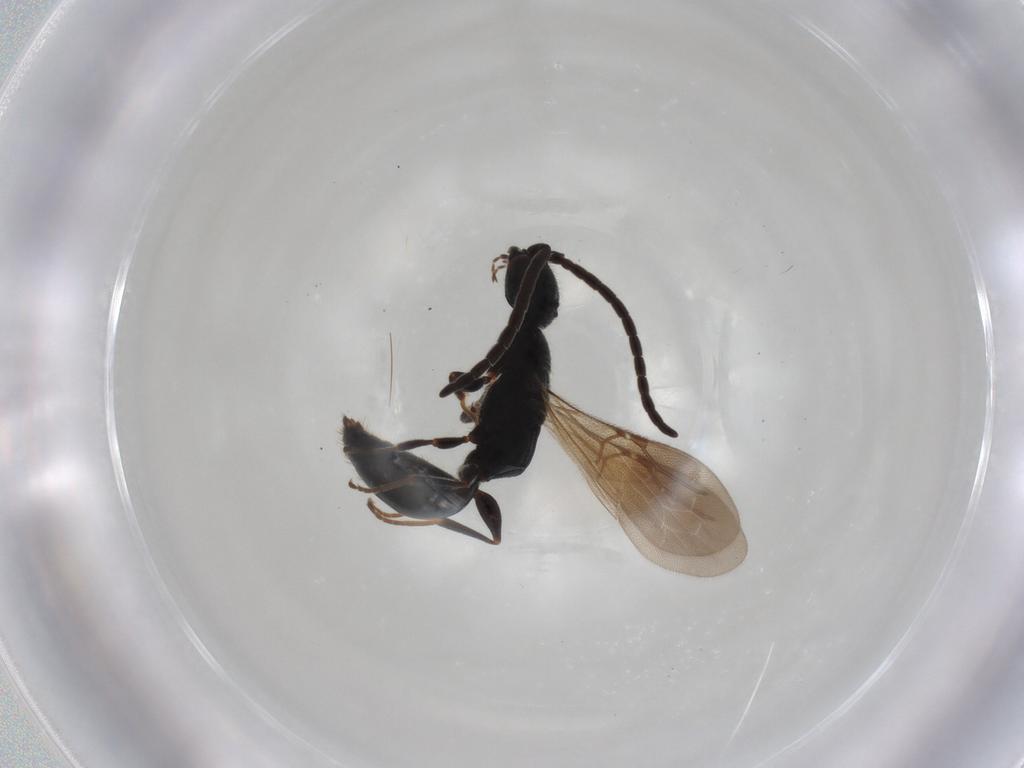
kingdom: Animalia
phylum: Arthropoda
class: Insecta
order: Hymenoptera
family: Bethylidae
